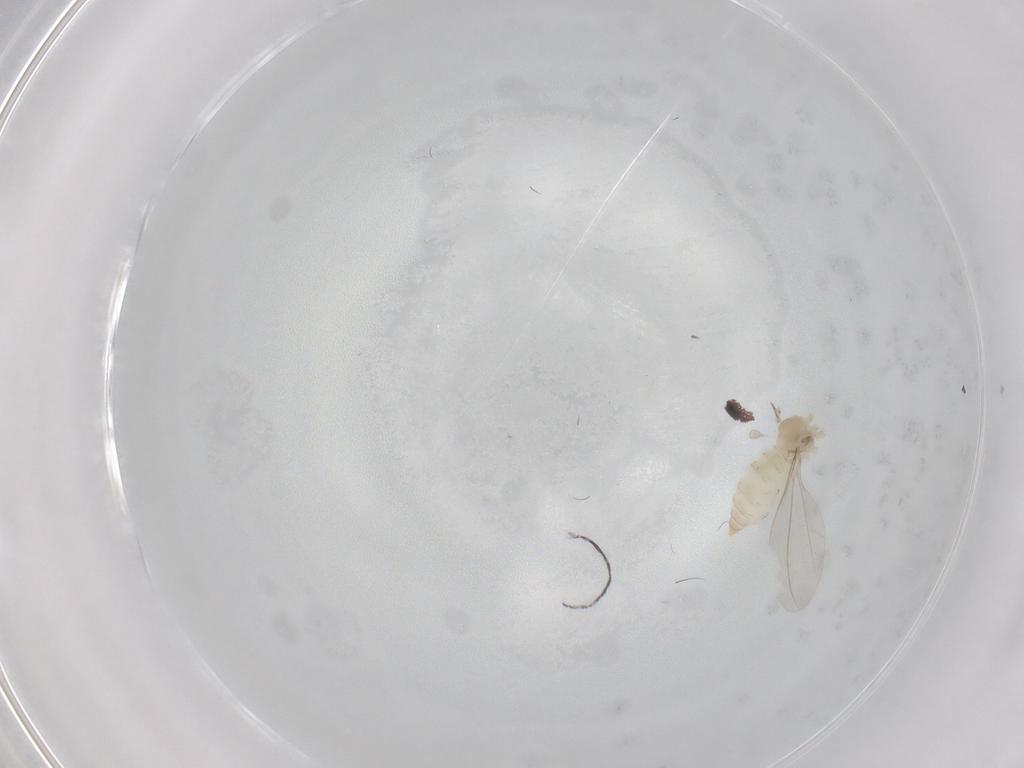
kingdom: Animalia
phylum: Arthropoda
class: Insecta
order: Diptera
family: Cecidomyiidae
